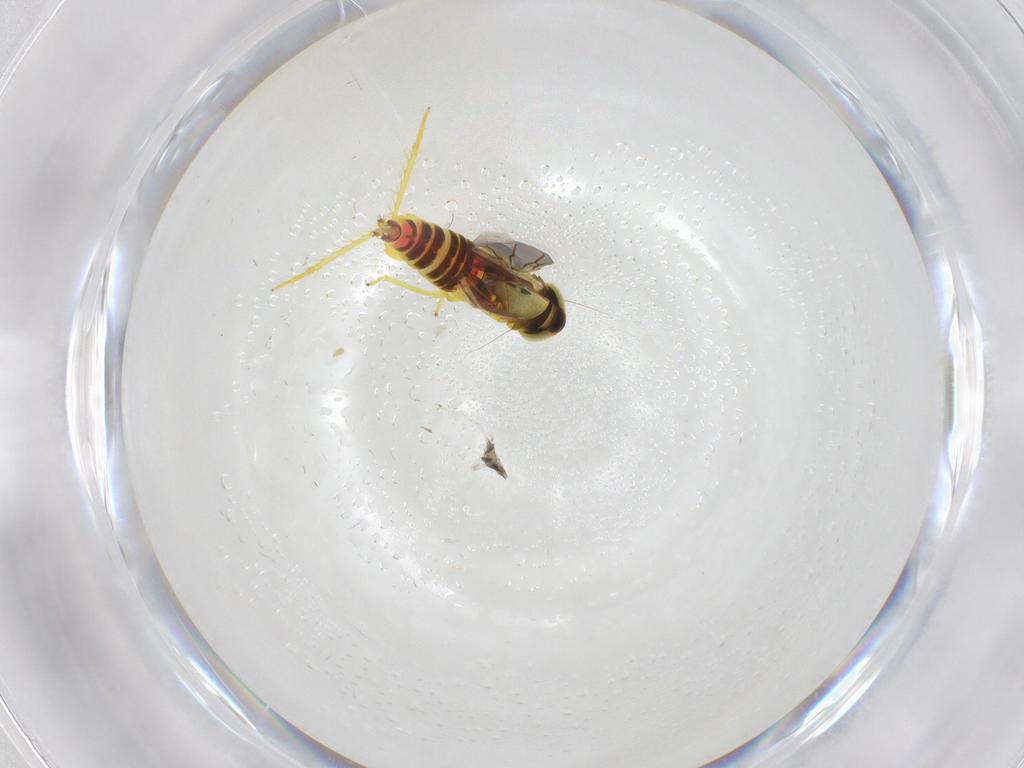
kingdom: Animalia
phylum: Arthropoda
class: Insecta
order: Hemiptera
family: Cicadellidae
